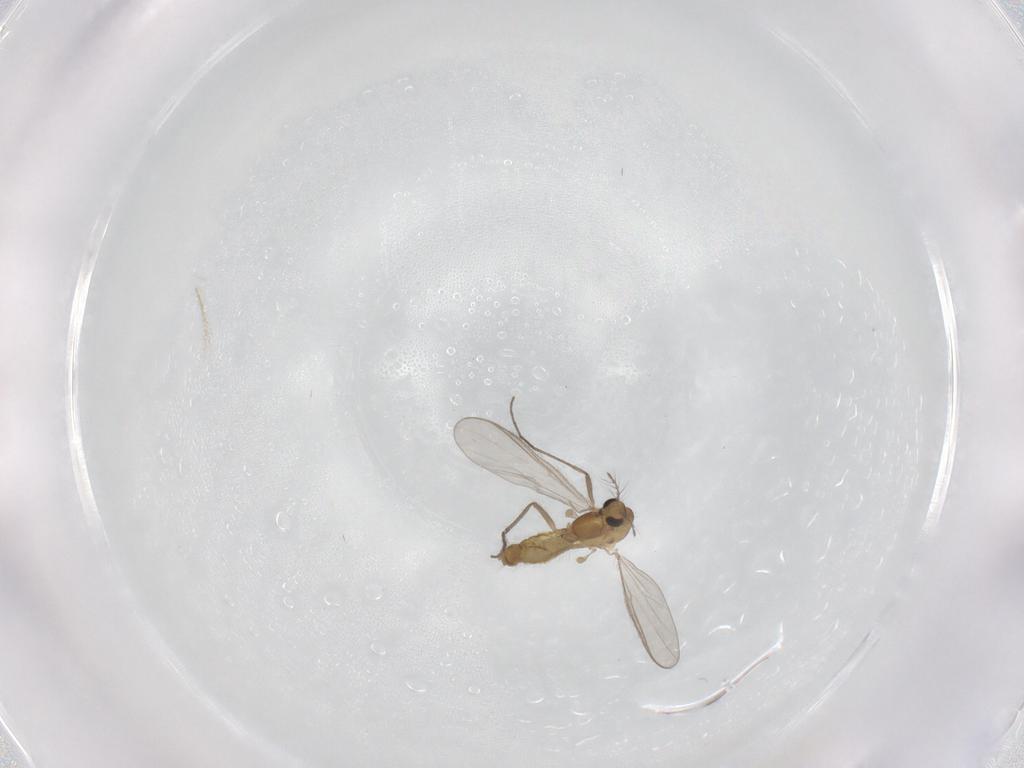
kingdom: Animalia
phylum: Arthropoda
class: Insecta
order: Diptera
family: Chironomidae
